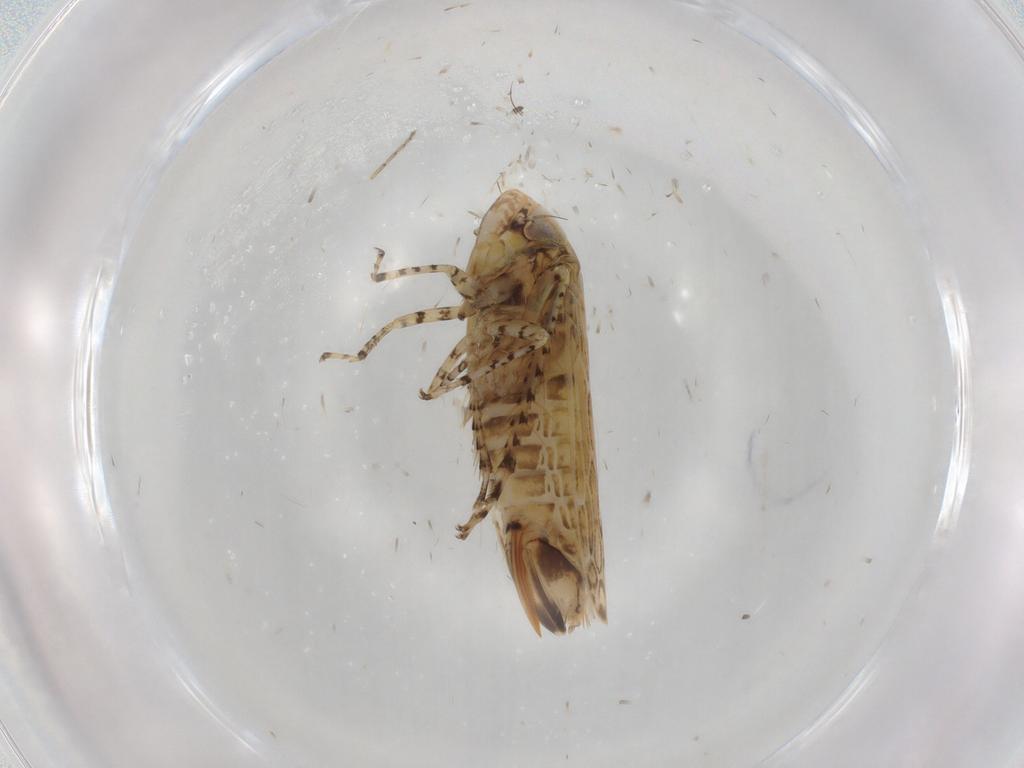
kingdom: Animalia
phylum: Arthropoda
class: Insecta
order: Hemiptera
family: Cicadellidae
